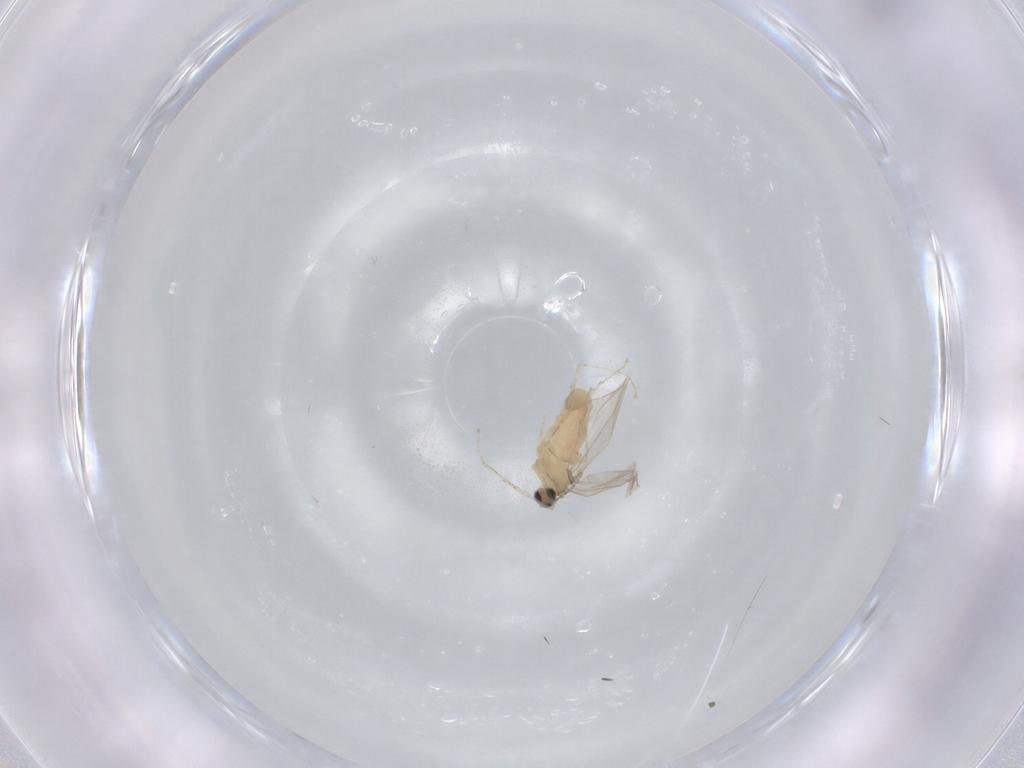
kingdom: Animalia
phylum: Arthropoda
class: Insecta
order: Diptera
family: Cecidomyiidae
